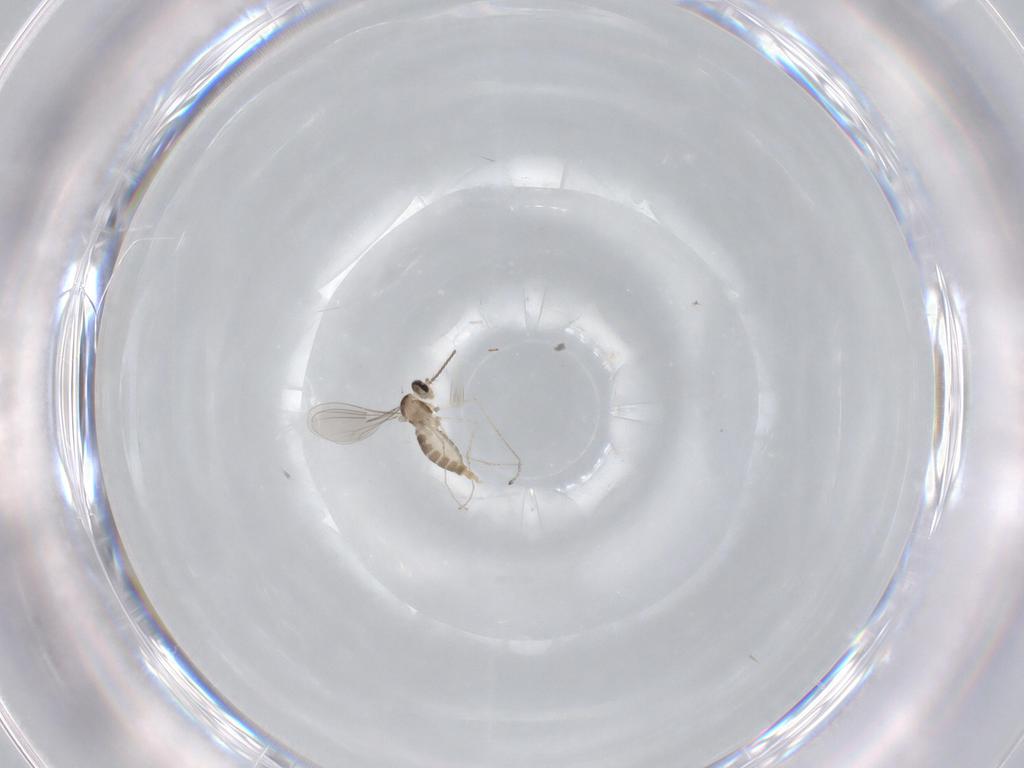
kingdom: Animalia
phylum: Arthropoda
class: Insecta
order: Diptera
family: Cecidomyiidae
